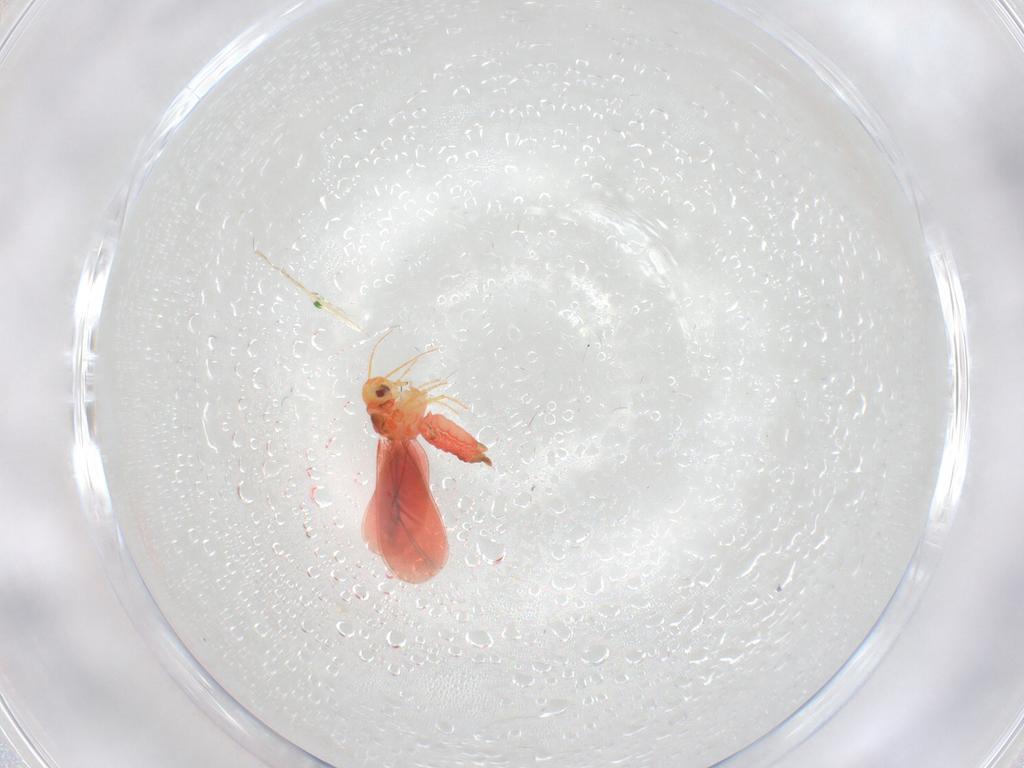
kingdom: Animalia
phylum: Arthropoda
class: Insecta
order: Hemiptera
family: Aleyrodidae
